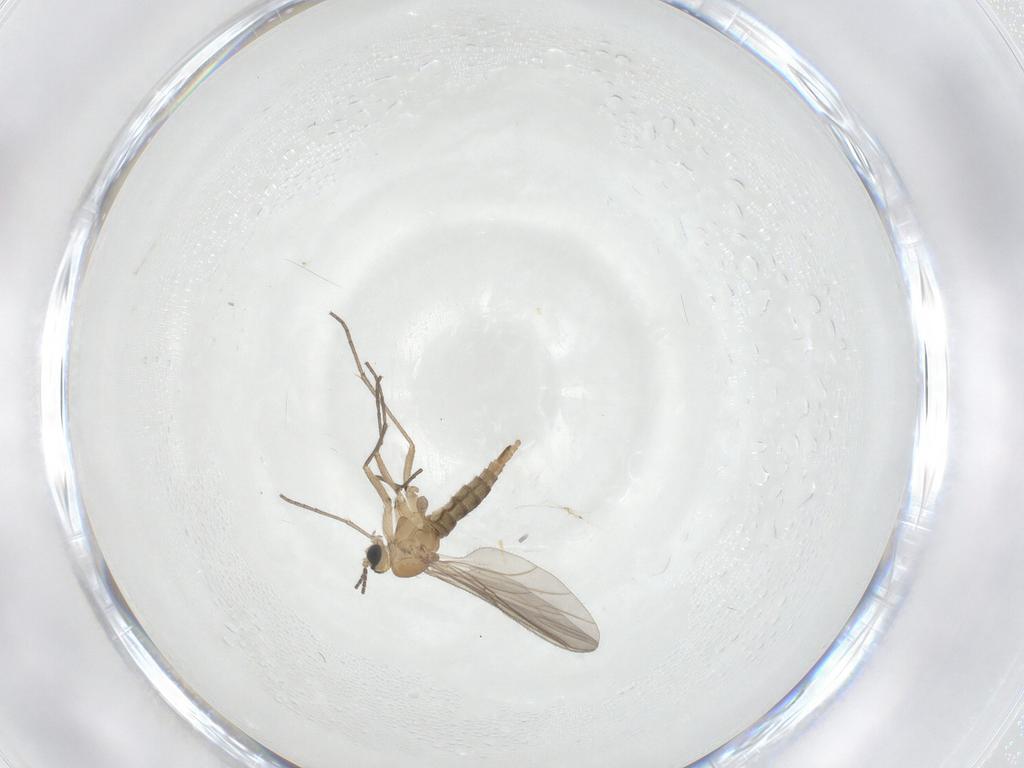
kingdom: Animalia
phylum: Arthropoda
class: Insecta
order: Diptera
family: Sciaridae
